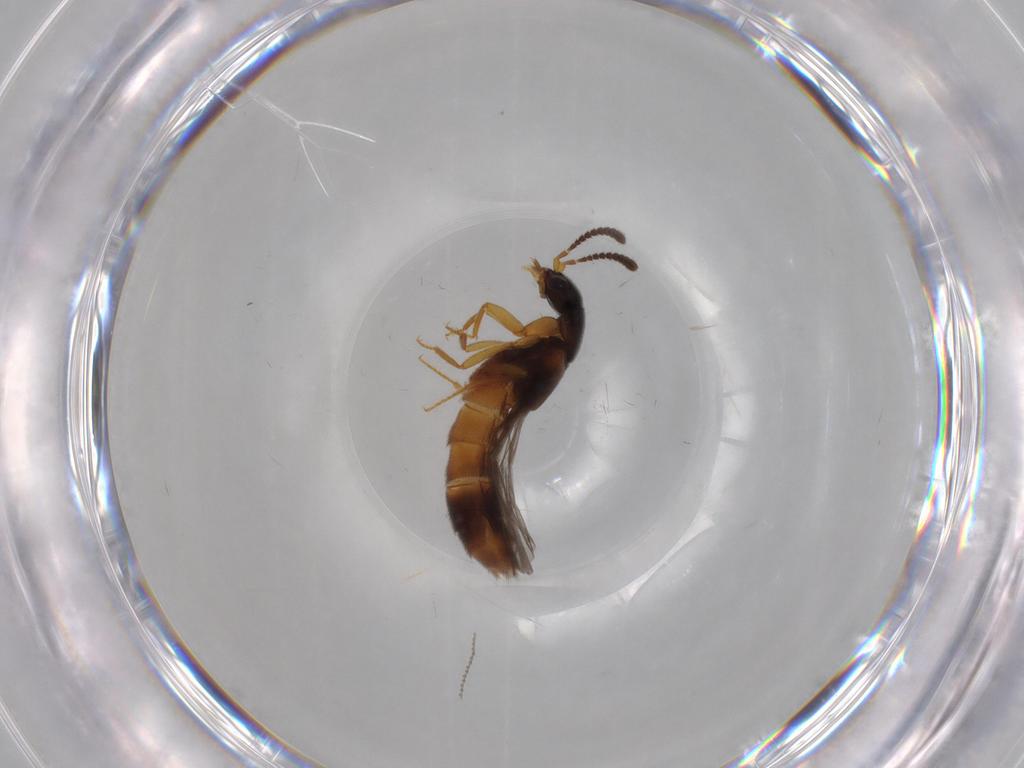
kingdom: Animalia
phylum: Arthropoda
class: Insecta
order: Coleoptera
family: Staphylinidae
